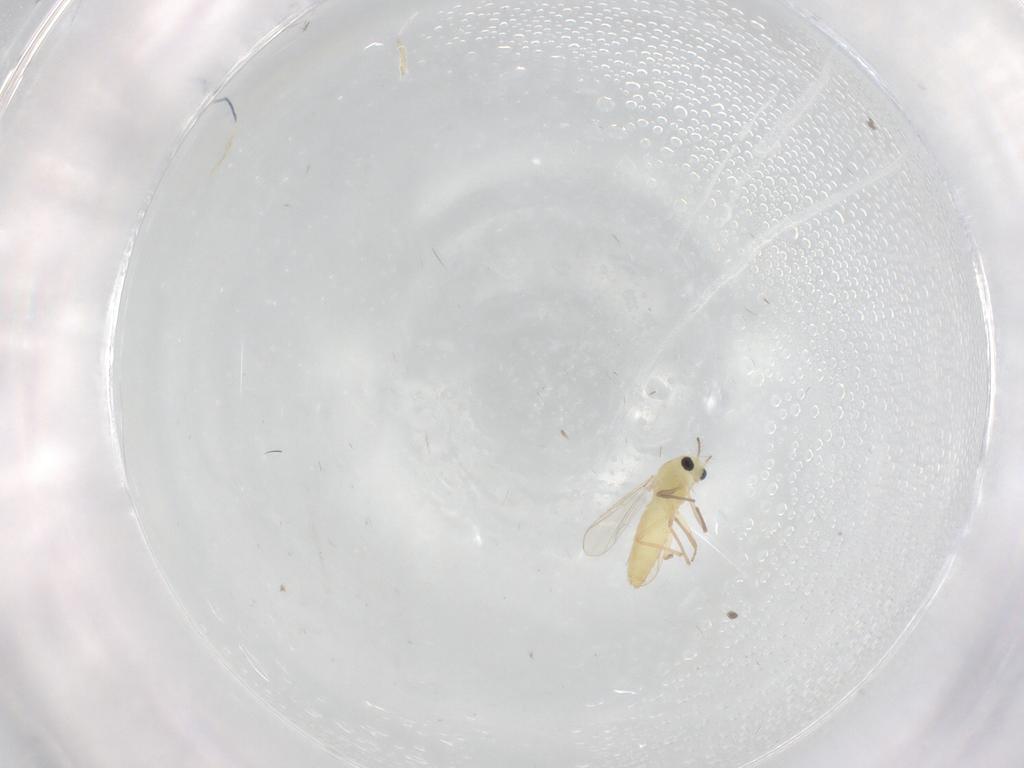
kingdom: Animalia
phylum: Arthropoda
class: Insecta
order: Diptera
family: Chironomidae
